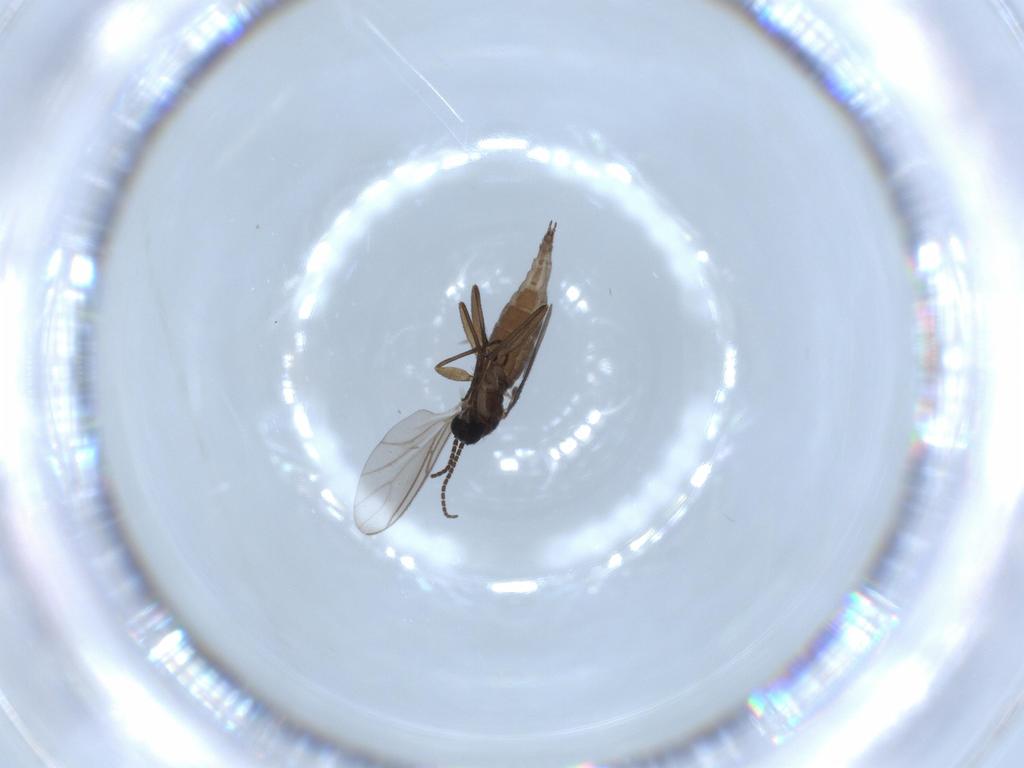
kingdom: Animalia
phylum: Arthropoda
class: Insecta
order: Diptera
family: Sciaridae
